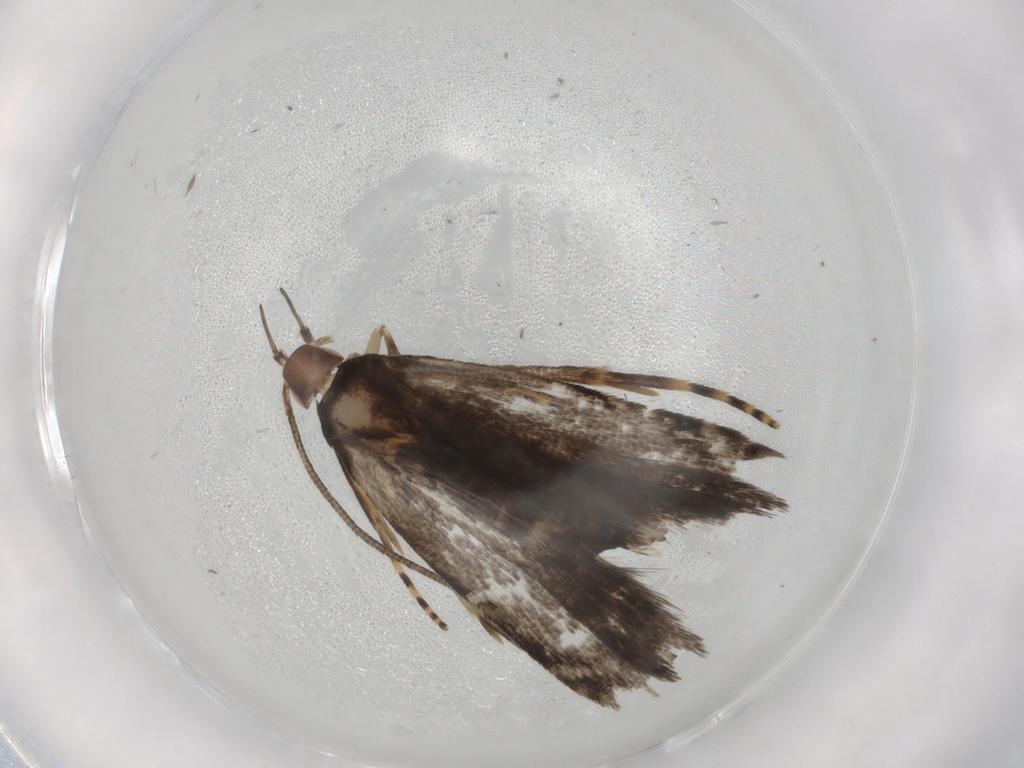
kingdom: Animalia
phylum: Arthropoda
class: Insecta
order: Lepidoptera
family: Gelechiidae
